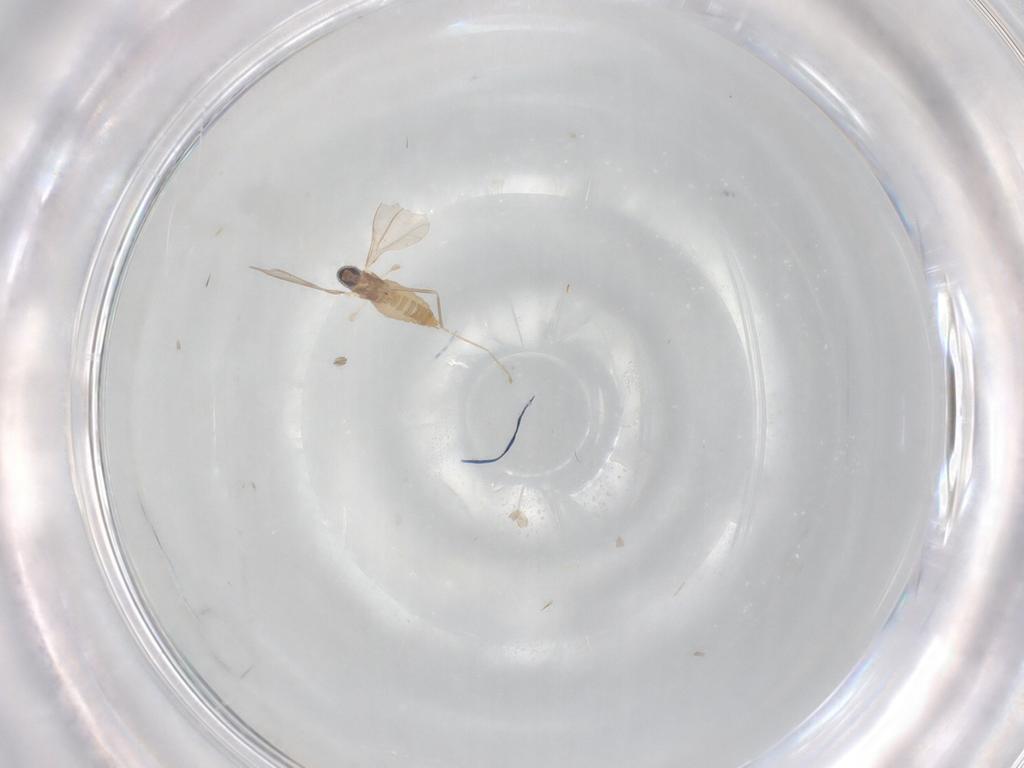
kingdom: Animalia
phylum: Arthropoda
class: Insecta
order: Diptera
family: Cecidomyiidae
